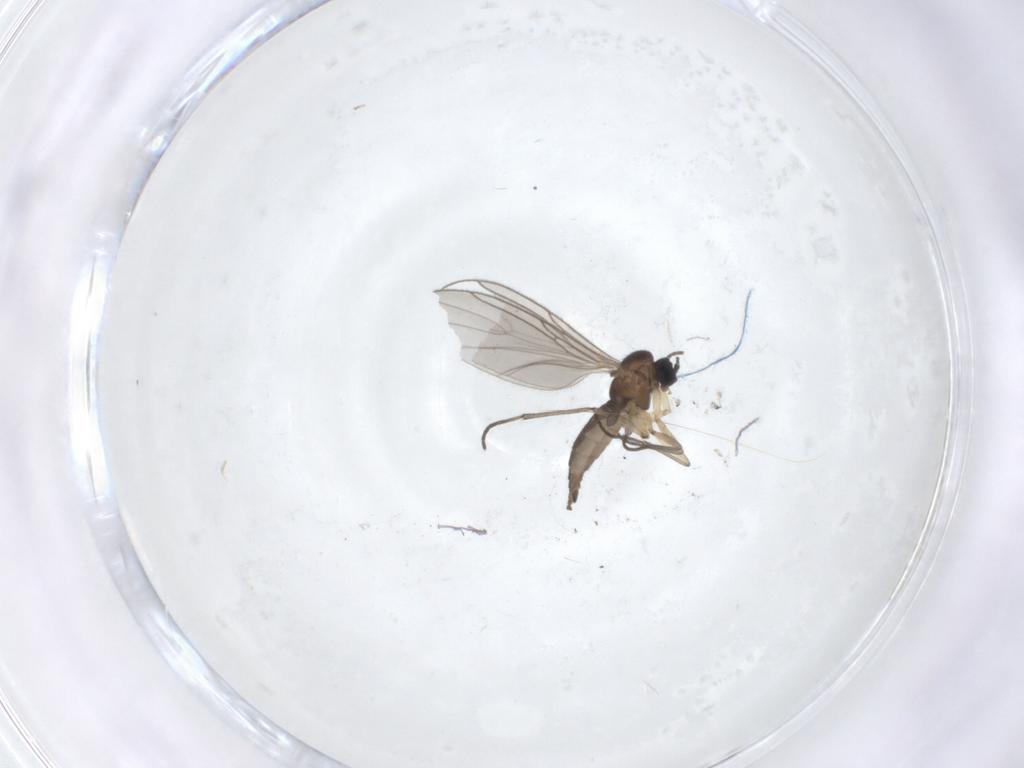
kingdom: Animalia
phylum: Arthropoda
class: Insecta
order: Diptera
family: Sciaridae
